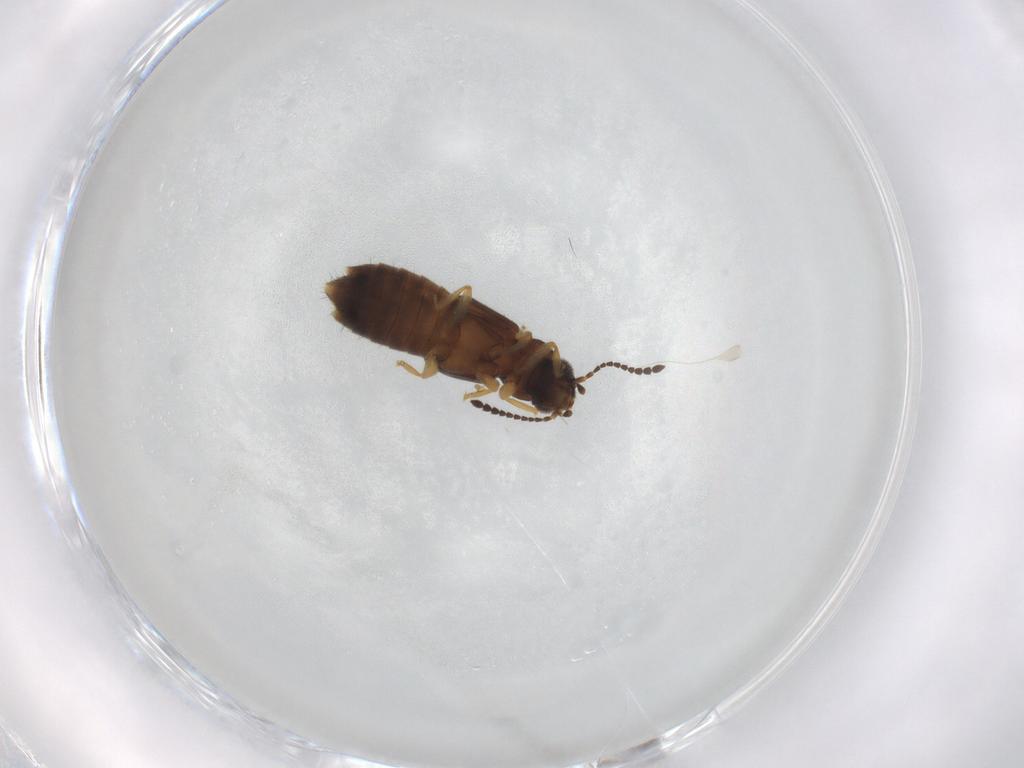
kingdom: Animalia
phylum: Arthropoda
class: Insecta
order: Coleoptera
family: Staphylinidae
